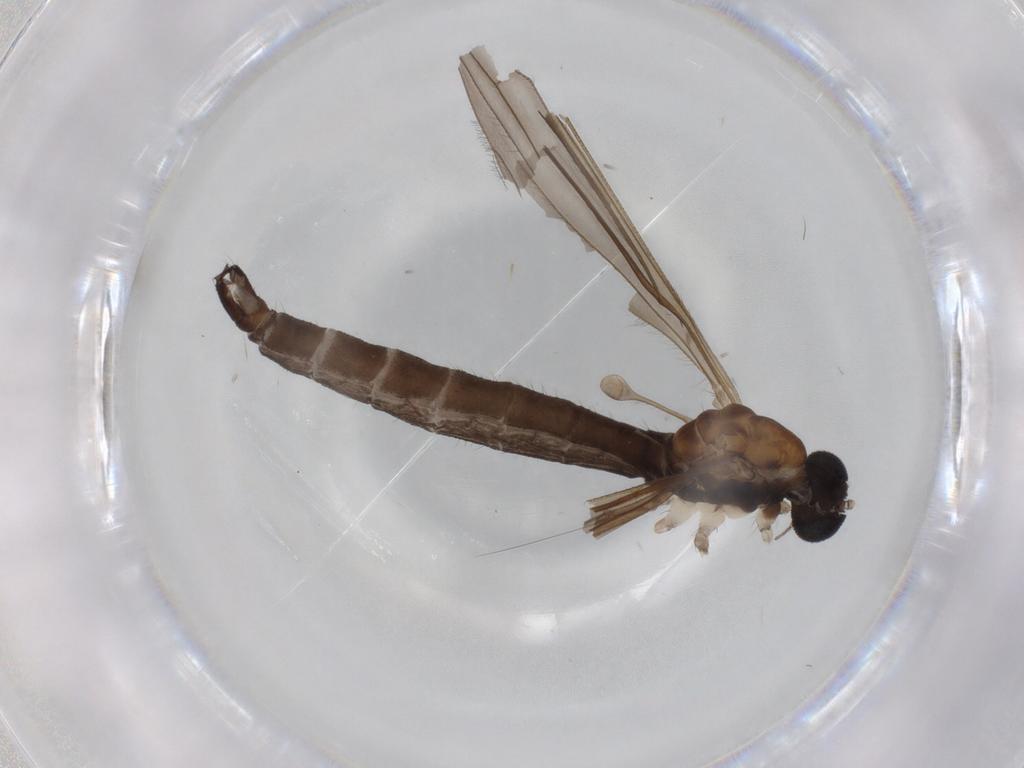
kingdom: Animalia
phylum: Arthropoda
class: Insecta
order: Diptera
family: Sciaridae
